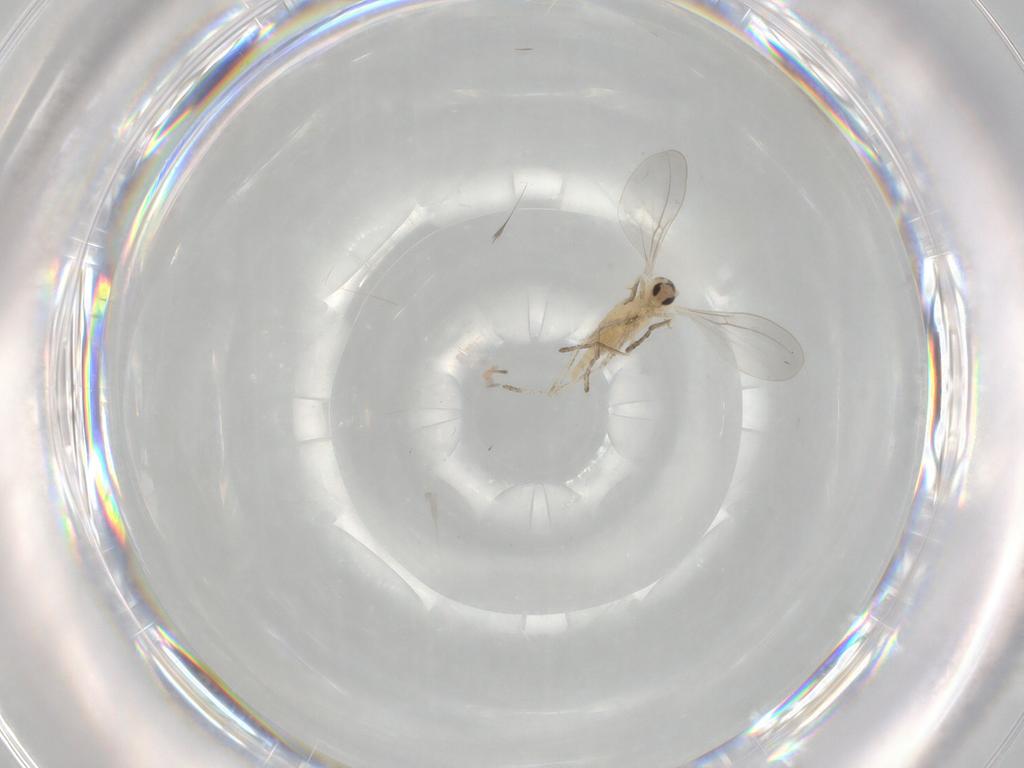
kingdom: Animalia
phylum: Arthropoda
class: Insecta
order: Diptera
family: Cecidomyiidae
